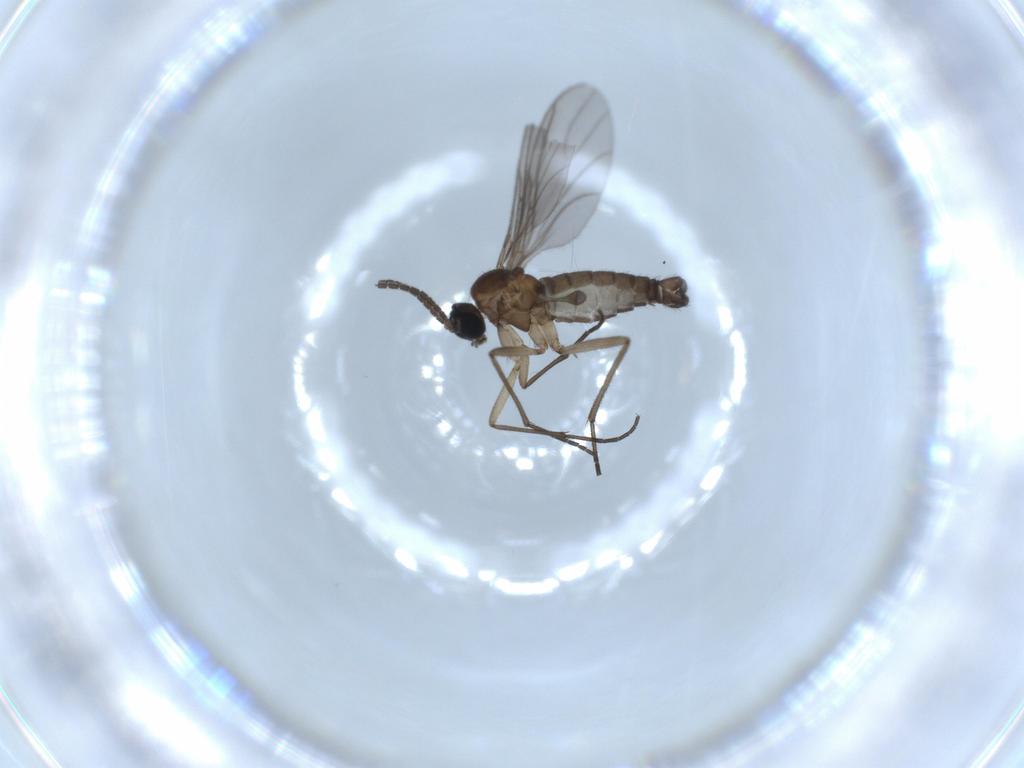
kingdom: Animalia
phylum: Arthropoda
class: Insecta
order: Diptera
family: Sciaridae
